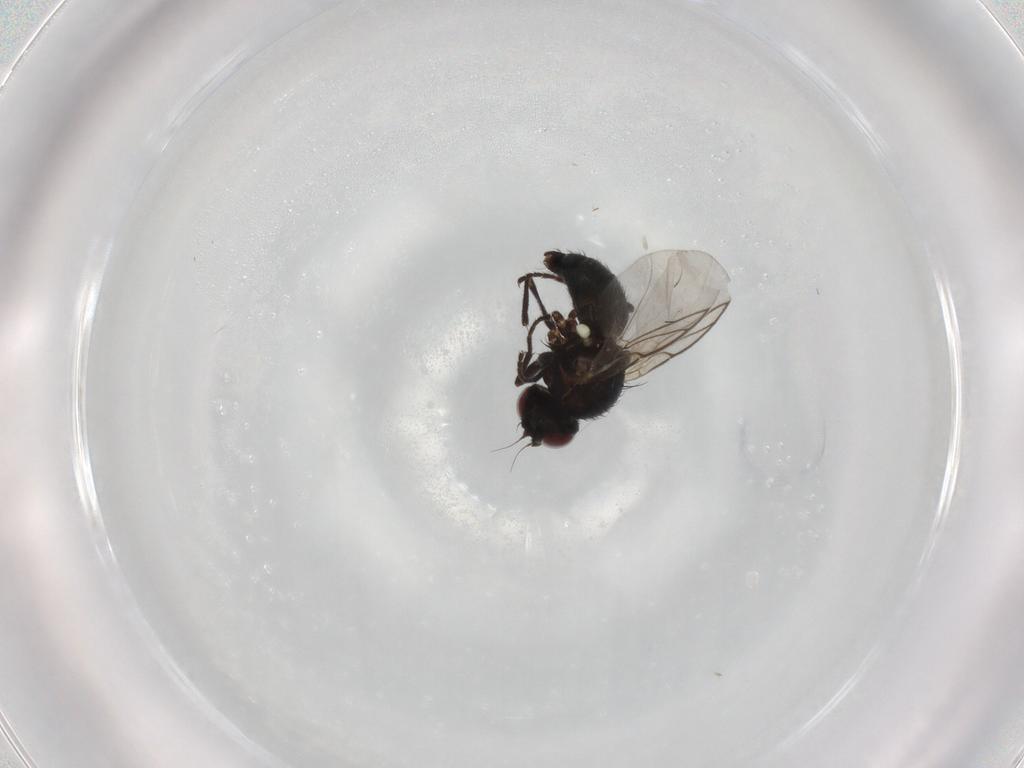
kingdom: Animalia
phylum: Arthropoda
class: Insecta
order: Diptera
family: Agromyzidae
